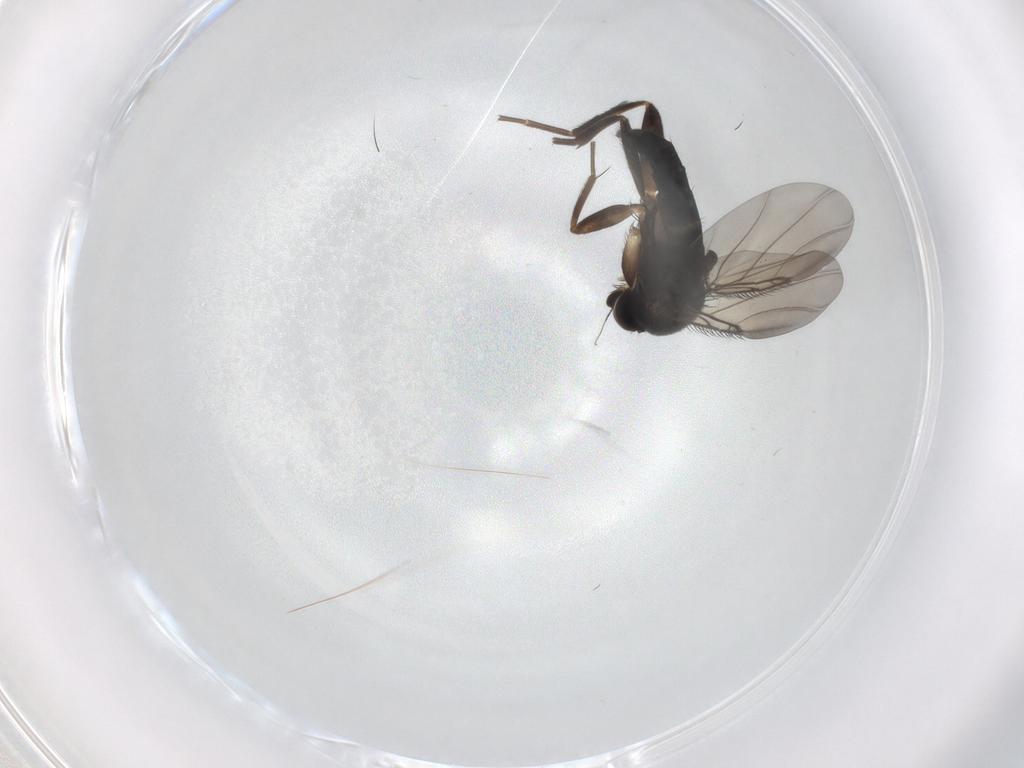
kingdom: Animalia
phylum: Arthropoda
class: Insecta
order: Diptera
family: Phoridae
